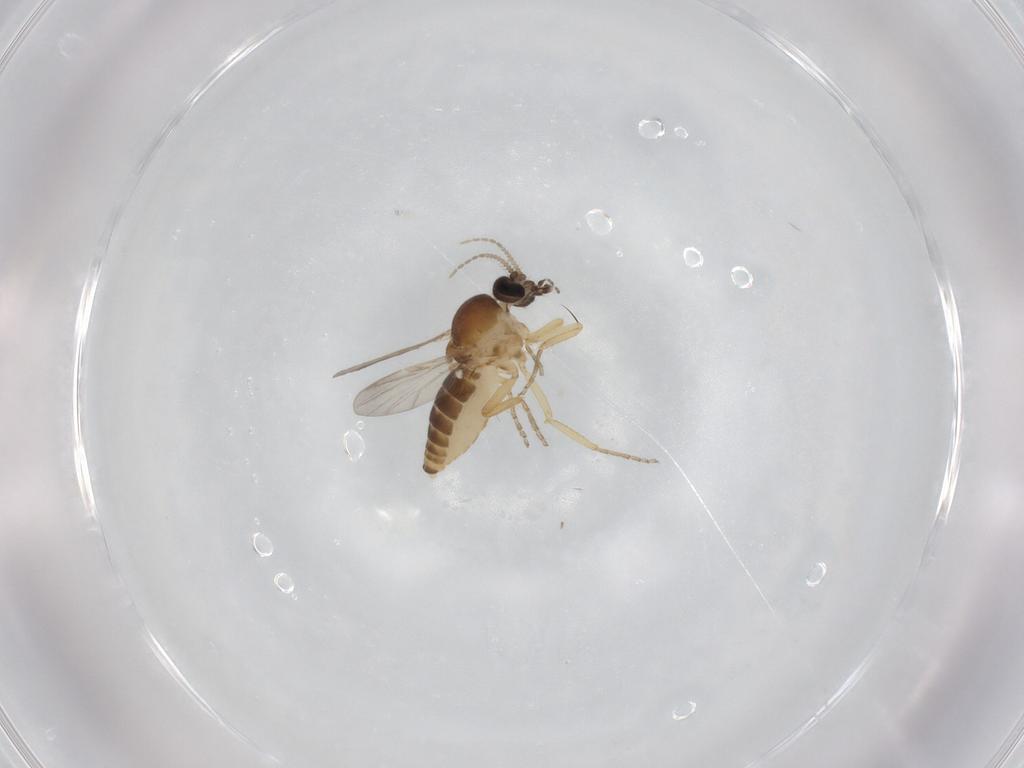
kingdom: Animalia
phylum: Arthropoda
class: Insecta
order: Diptera
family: Ceratopogonidae
